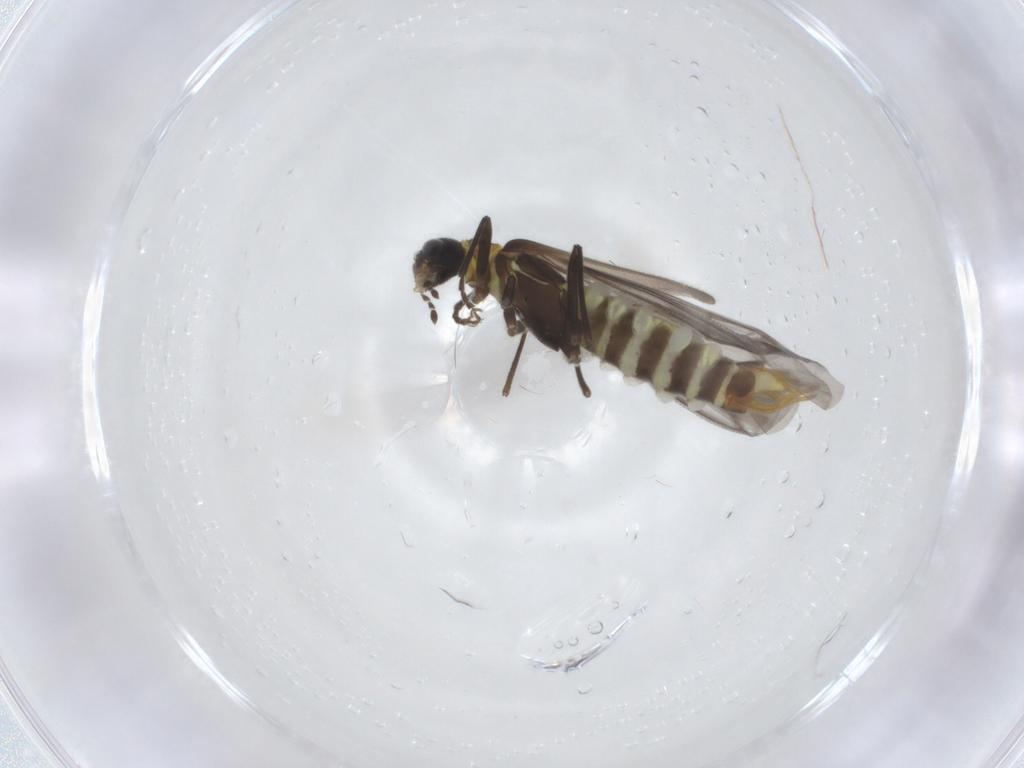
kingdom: Animalia
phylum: Arthropoda
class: Insecta
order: Coleoptera
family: Cantharidae
